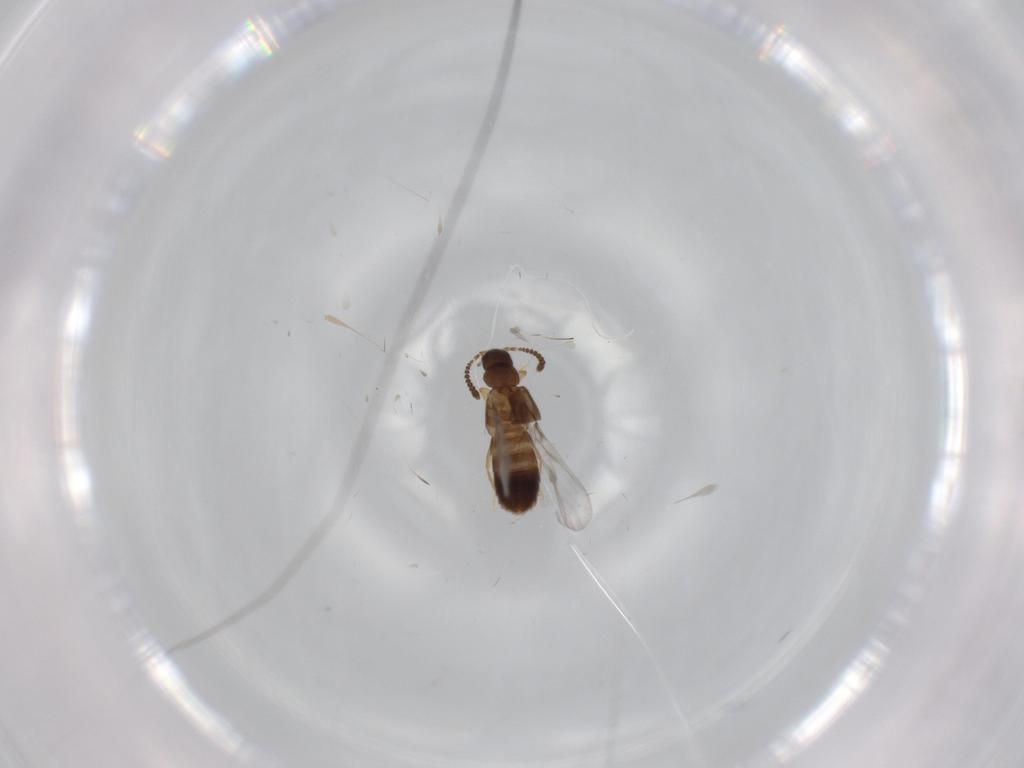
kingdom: Animalia
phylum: Arthropoda
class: Insecta
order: Coleoptera
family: Staphylinidae
